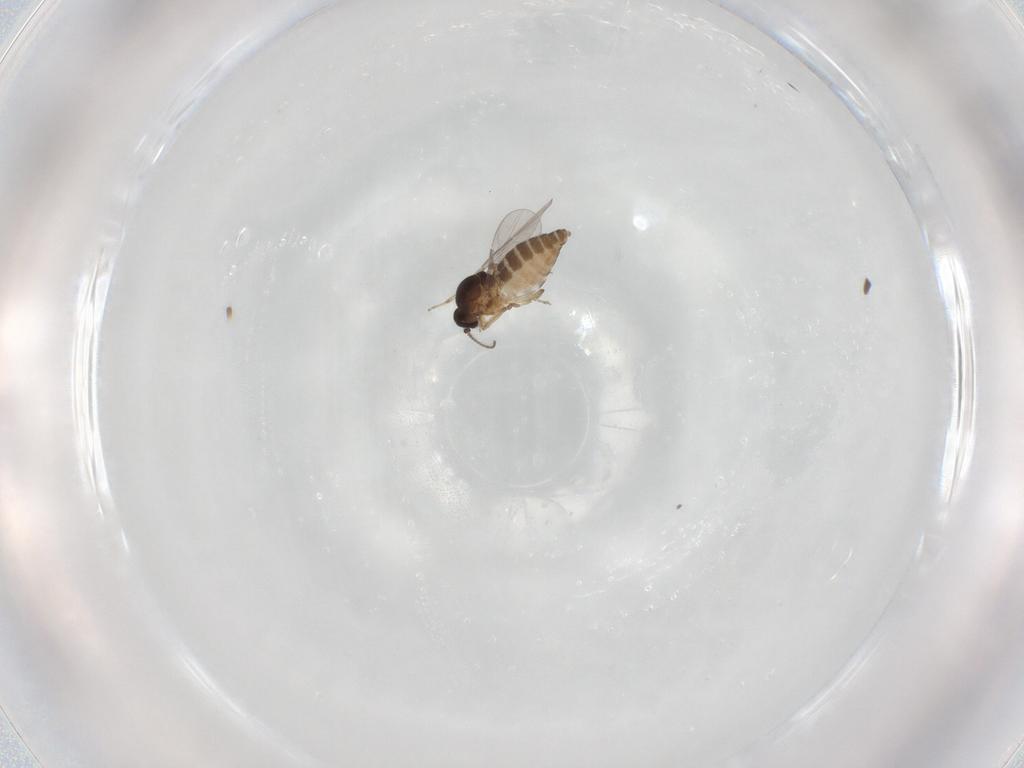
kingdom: Animalia
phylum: Arthropoda
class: Insecta
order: Diptera
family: Ceratopogonidae
